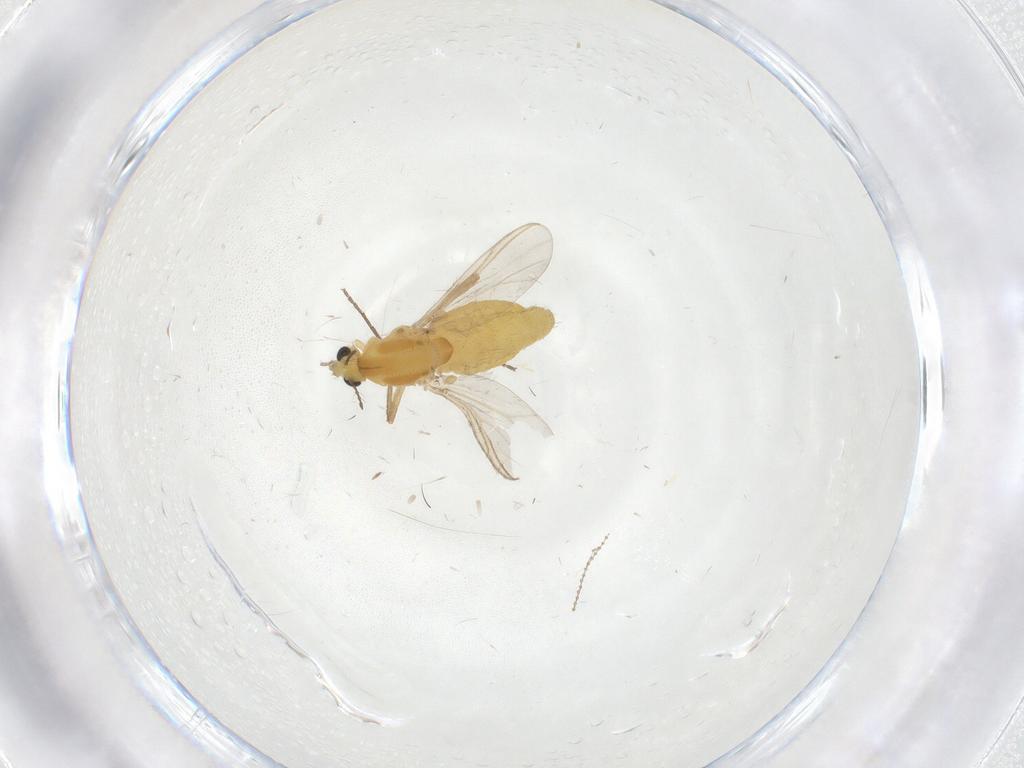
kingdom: Animalia
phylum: Arthropoda
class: Insecta
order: Diptera
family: Chironomidae
